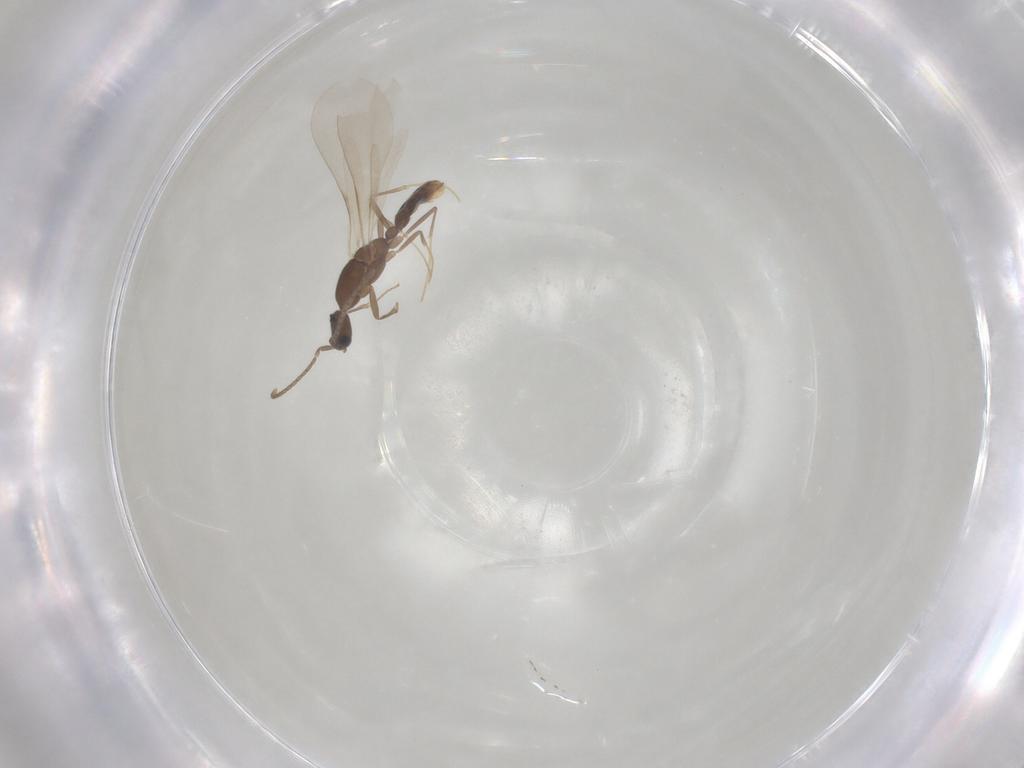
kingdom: Animalia
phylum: Arthropoda
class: Insecta
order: Hymenoptera
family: Formicidae
